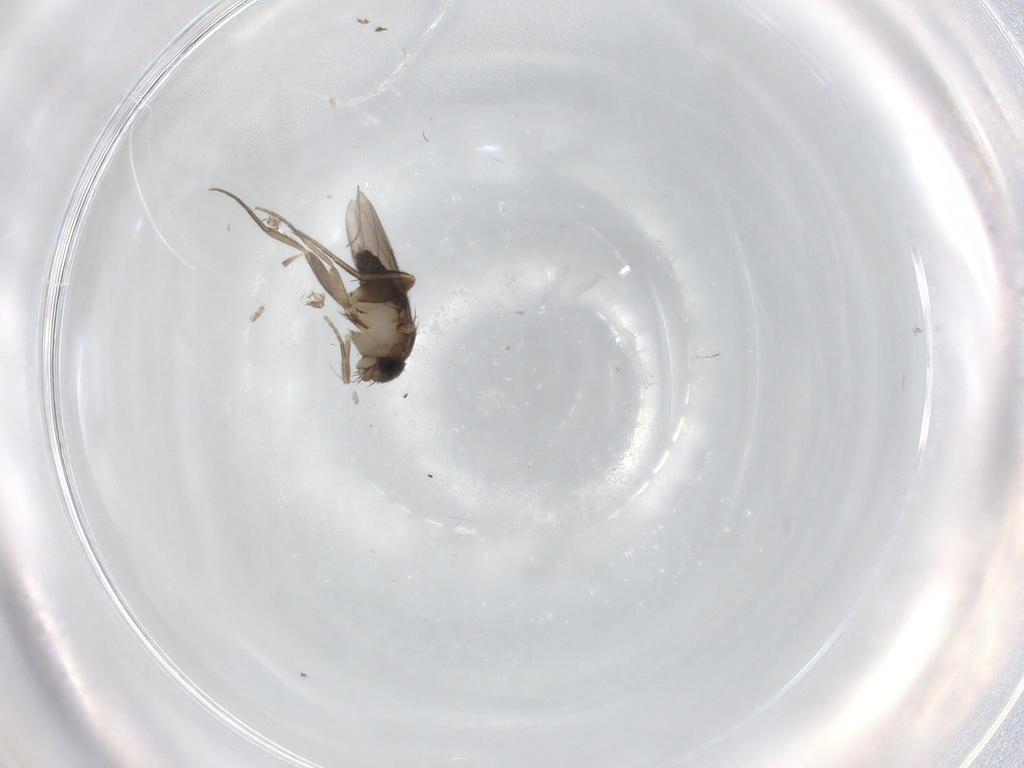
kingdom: Animalia
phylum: Arthropoda
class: Insecta
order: Diptera
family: Phoridae
